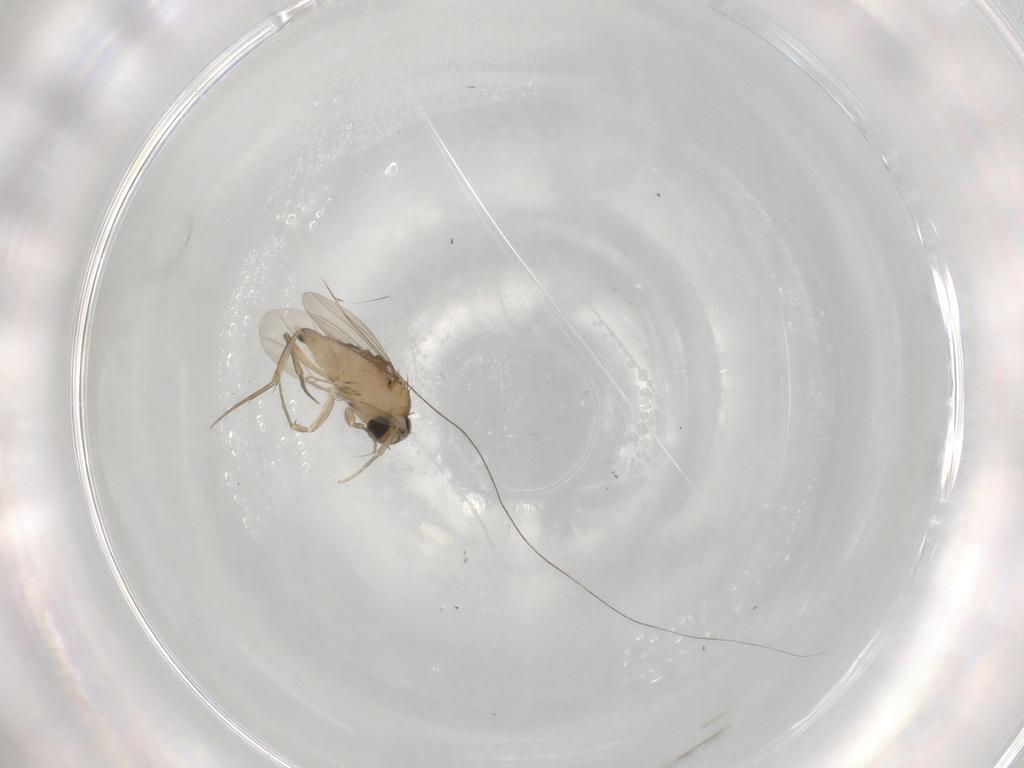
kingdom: Animalia
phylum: Arthropoda
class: Insecta
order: Diptera
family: Phoridae
